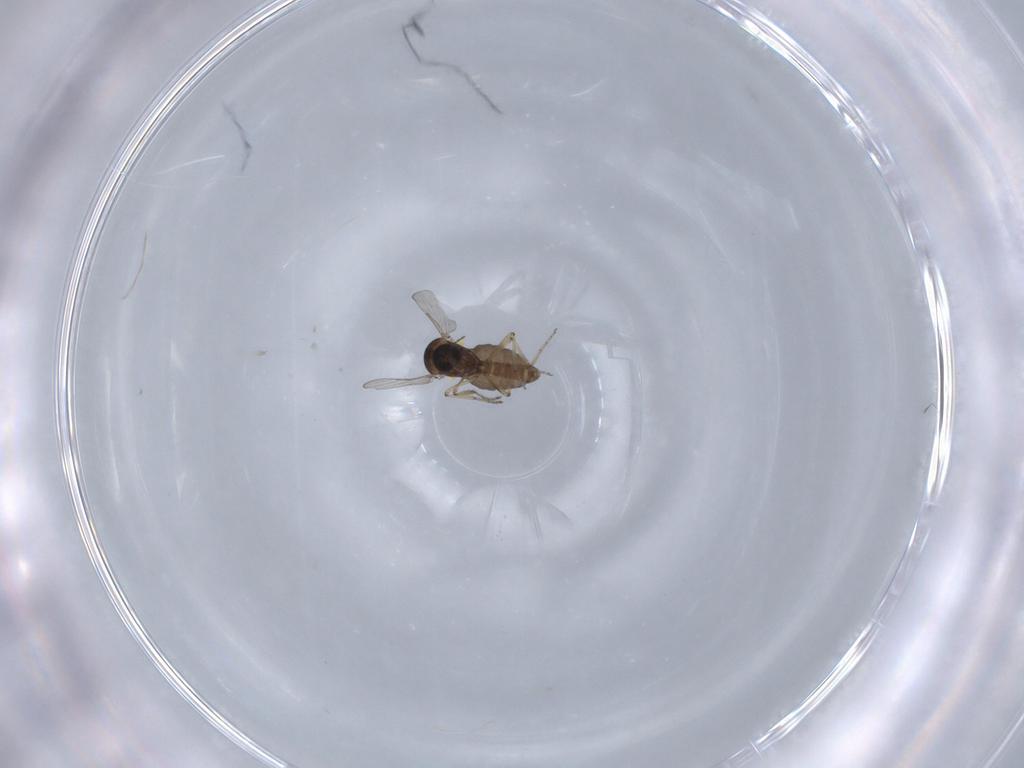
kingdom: Animalia
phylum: Arthropoda
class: Insecta
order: Diptera
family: Ceratopogonidae
